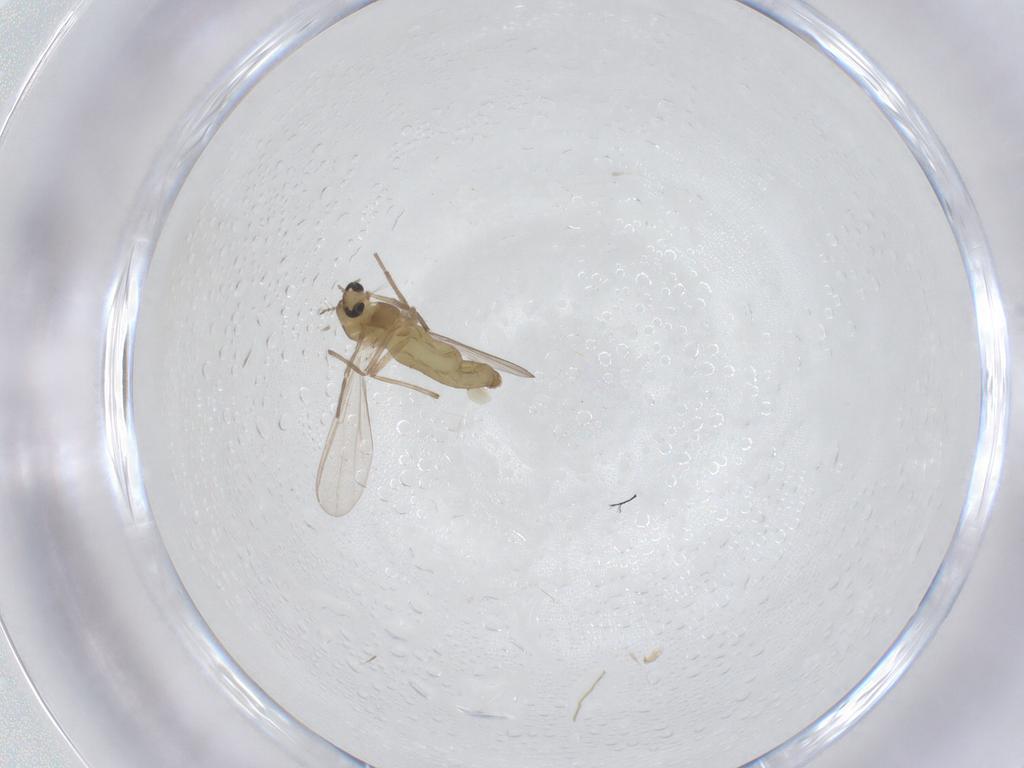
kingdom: Animalia
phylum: Arthropoda
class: Insecta
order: Diptera
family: Chironomidae
